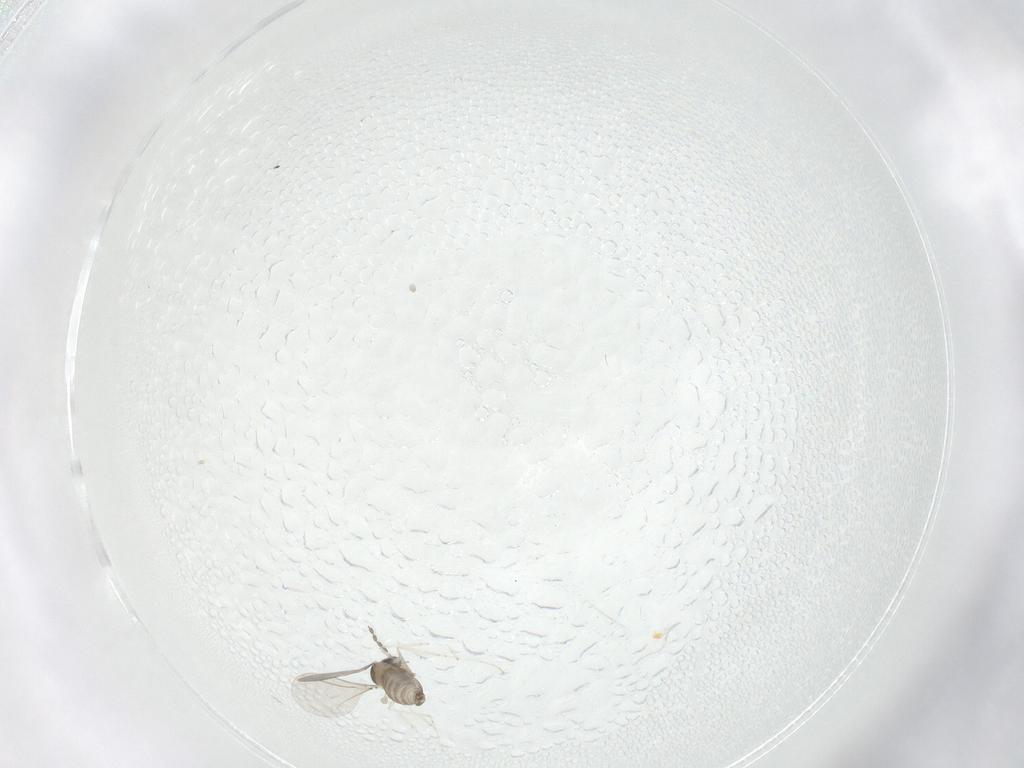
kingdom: Animalia
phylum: Arthropoda
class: Insecta
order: Diptera
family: Cecidomyiidae
